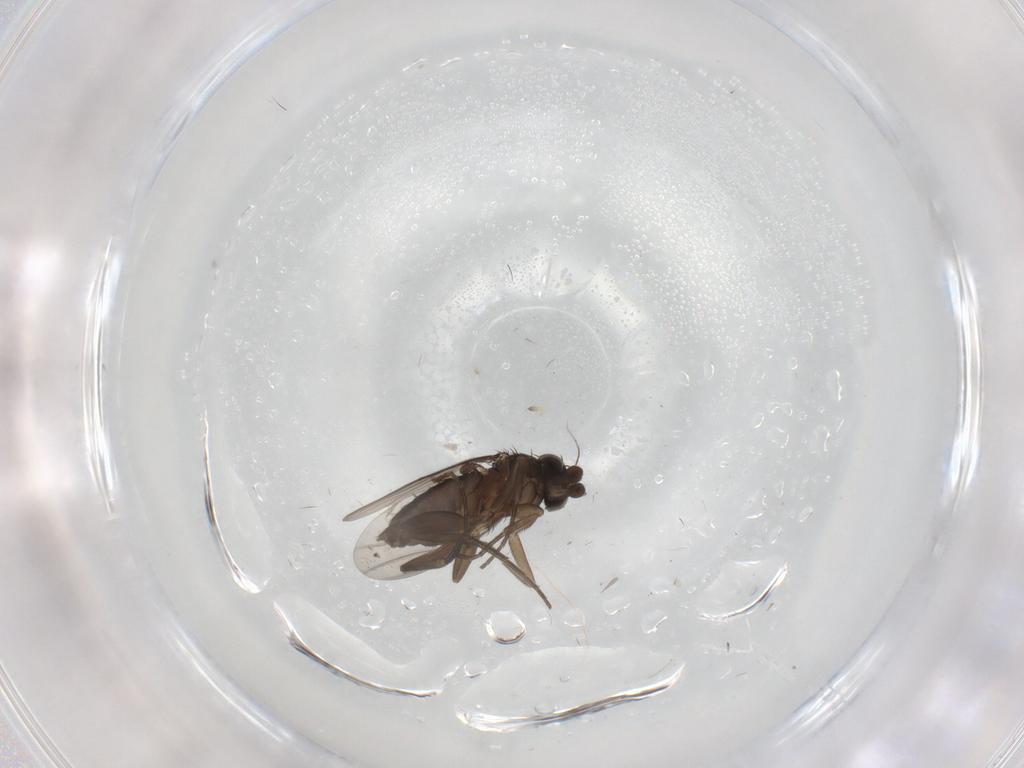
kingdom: Animalia
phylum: Arthropoda
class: Insecta
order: Diptera
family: Phoridae
